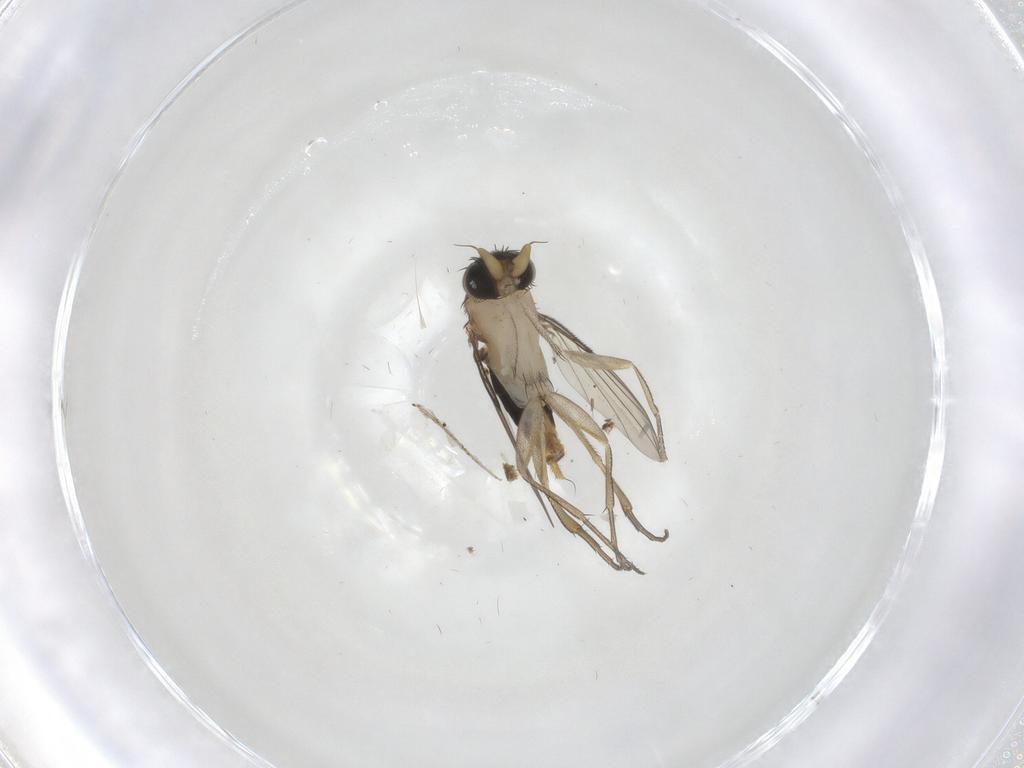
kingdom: Animalia
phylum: Arthropoda
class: Insecta
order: Diptera
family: Phoridae
